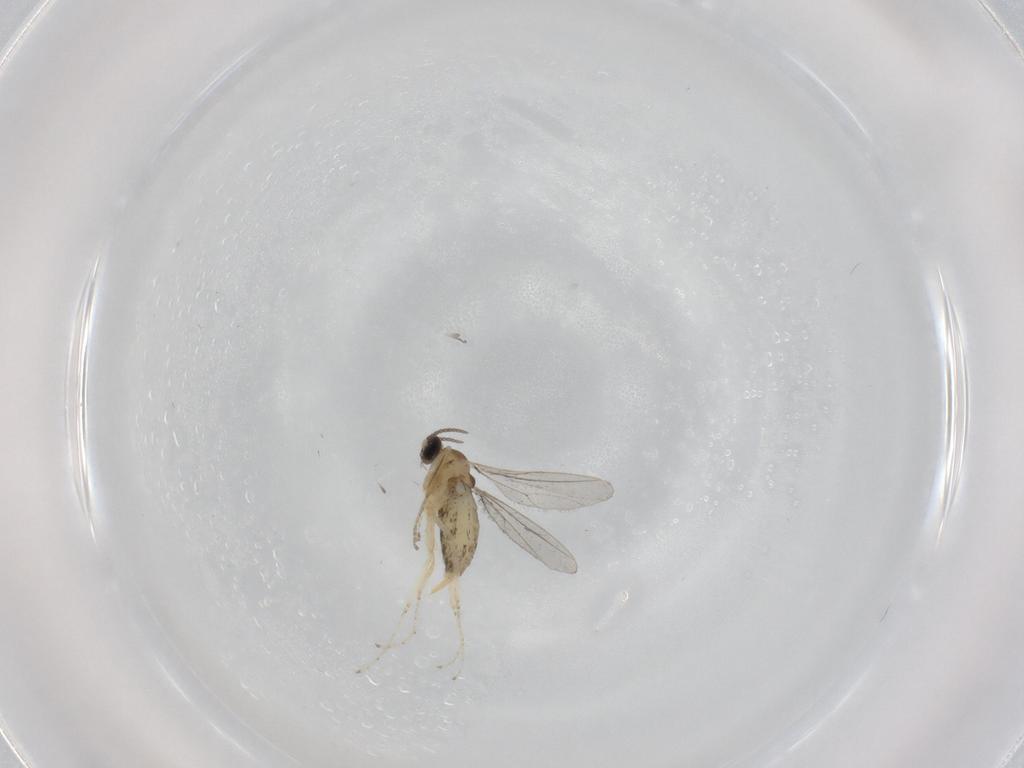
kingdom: Animalia
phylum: Arthropoda
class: Insecta
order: Diptera
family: Cecidomyiidae
